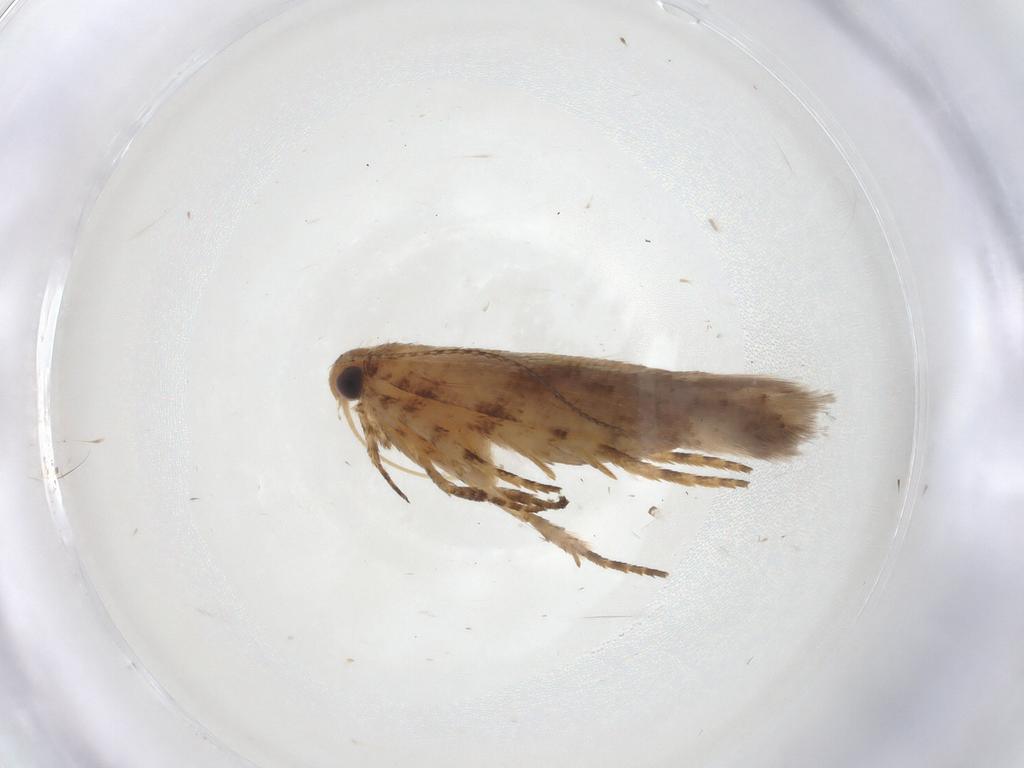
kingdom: Animalia
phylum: Arthropoda
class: Insecta
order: Lepidoptera
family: Gelechiidae
